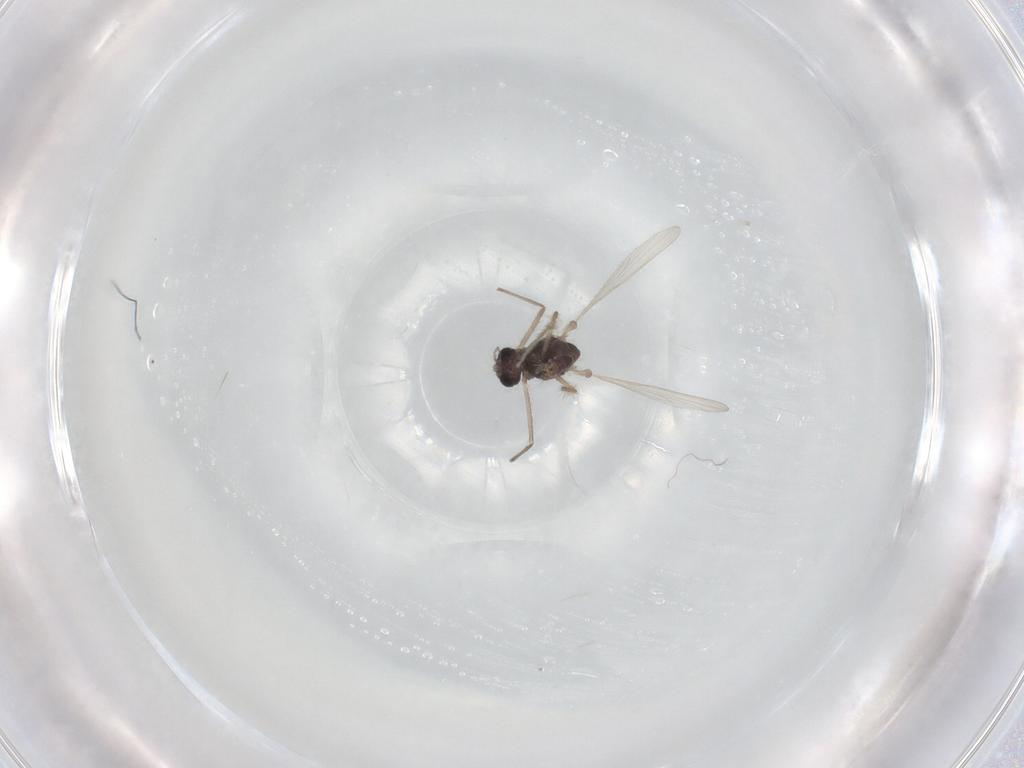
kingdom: Animalia
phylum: Arthropoda
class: Insecta
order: Diptera
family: Chironomidae
